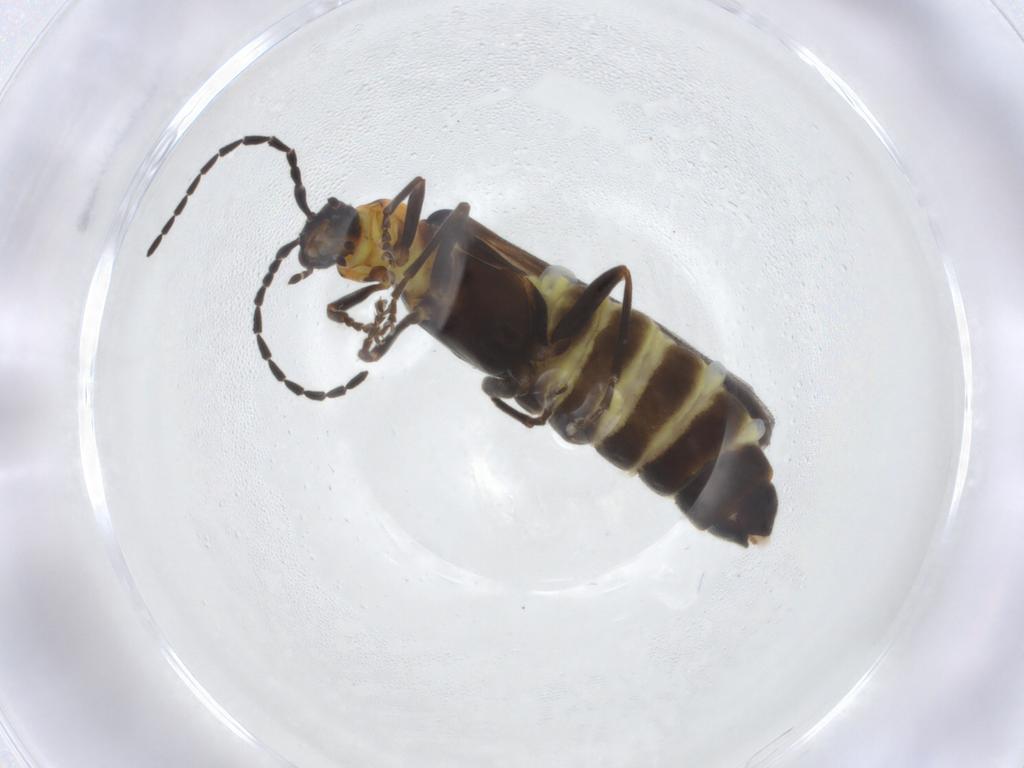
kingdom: Animalia
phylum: Arthropoda
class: Insecta
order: Coleoptera
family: Cantharidae
